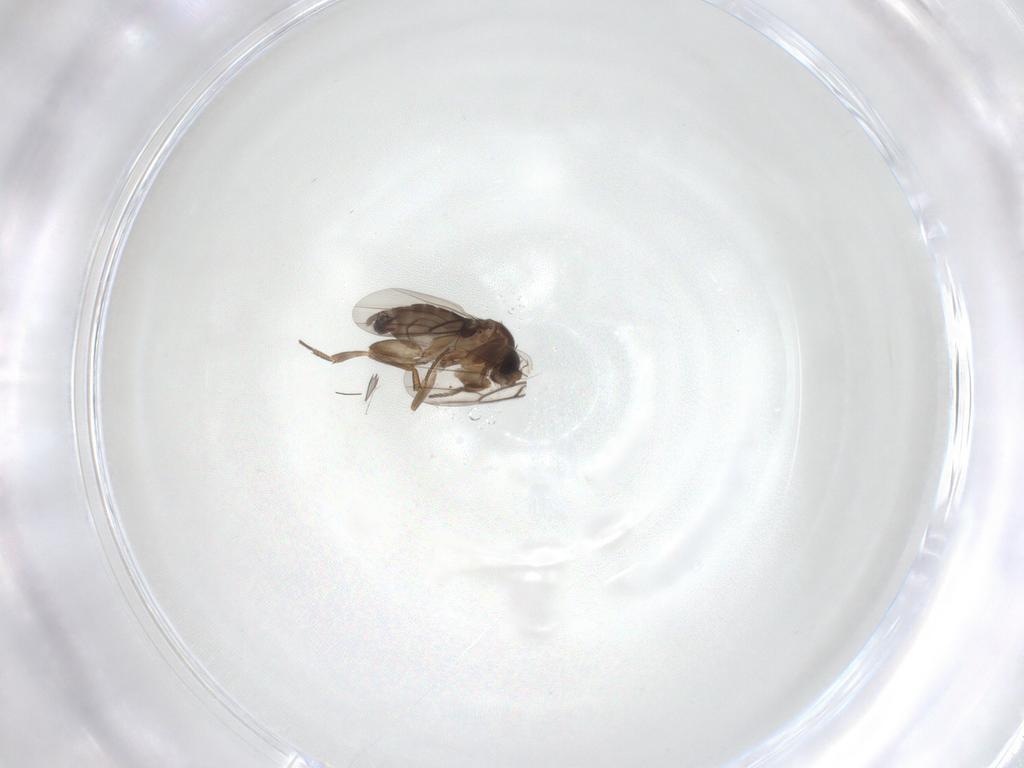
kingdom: Animalia
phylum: Arthropoda
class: Insecta
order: Diptera
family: Phoridae
